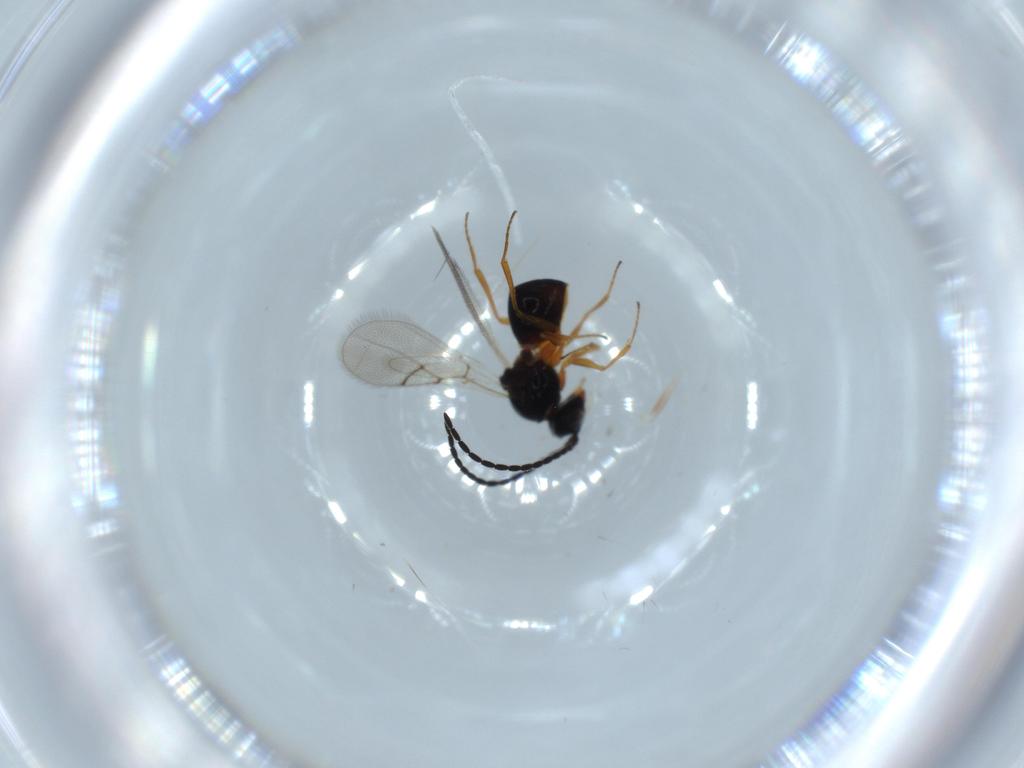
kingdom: Animalia
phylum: Arthropoda
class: Insecta
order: Hymenoptera
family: Figitidae
